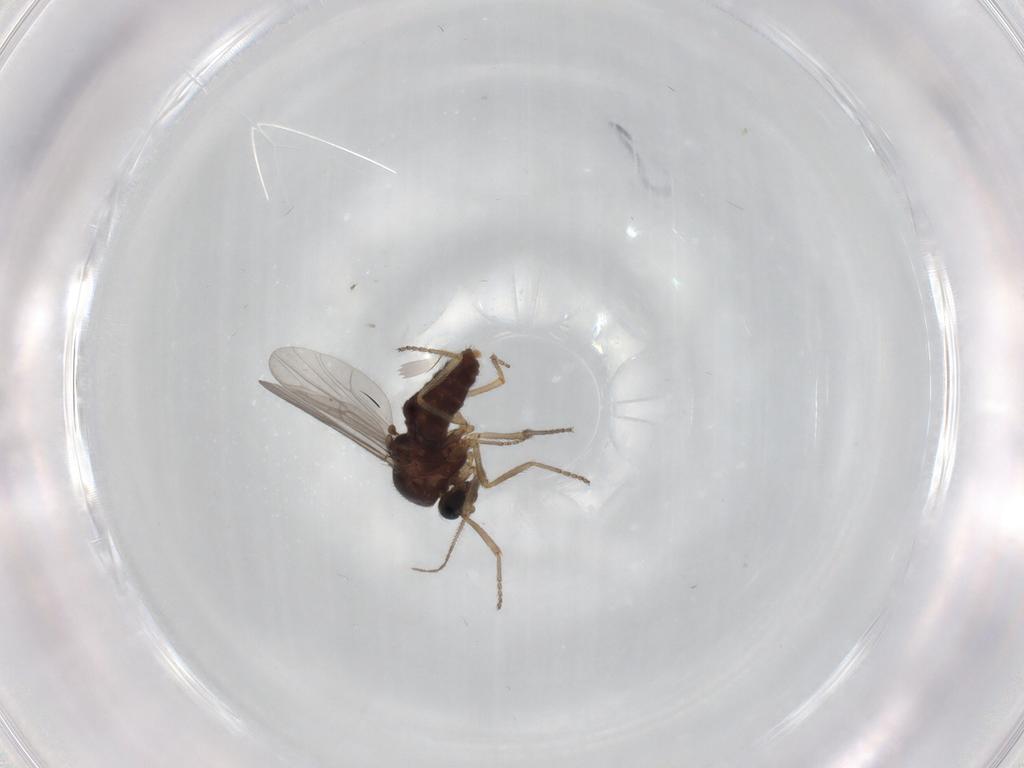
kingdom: Animalia
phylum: Arthropoda
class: Insecta
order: Diptera
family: Ceratopogonidae
